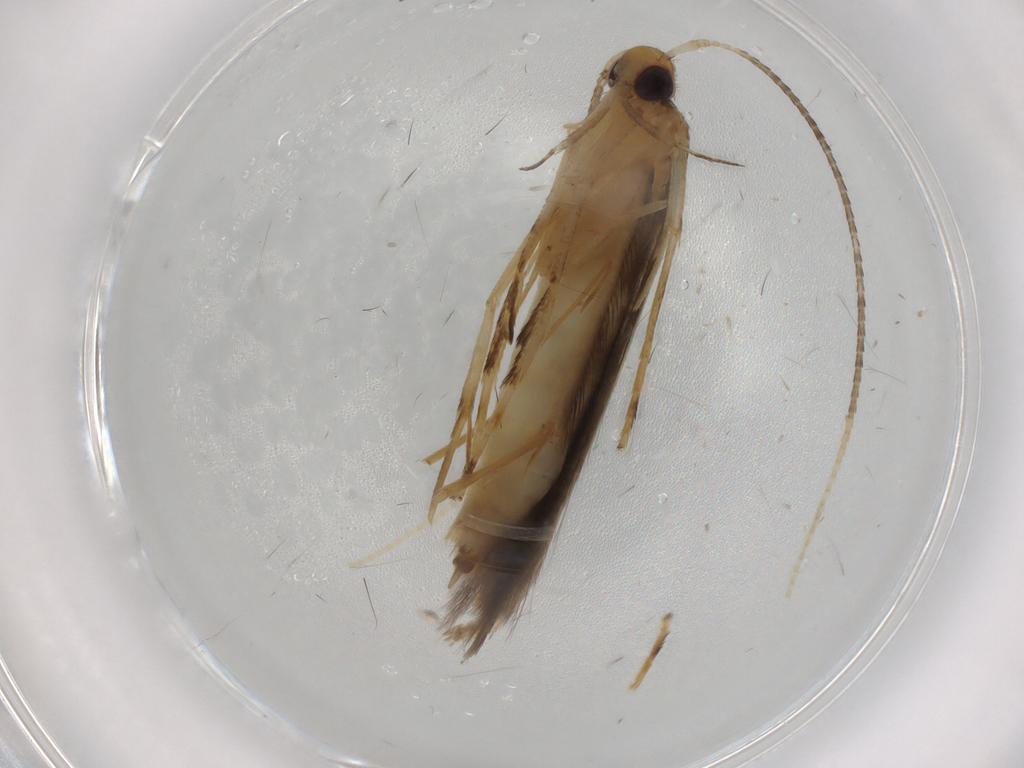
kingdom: Animalia
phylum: Arthropoda
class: Insecta
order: Lepidoptera
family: Pterolonchidae
